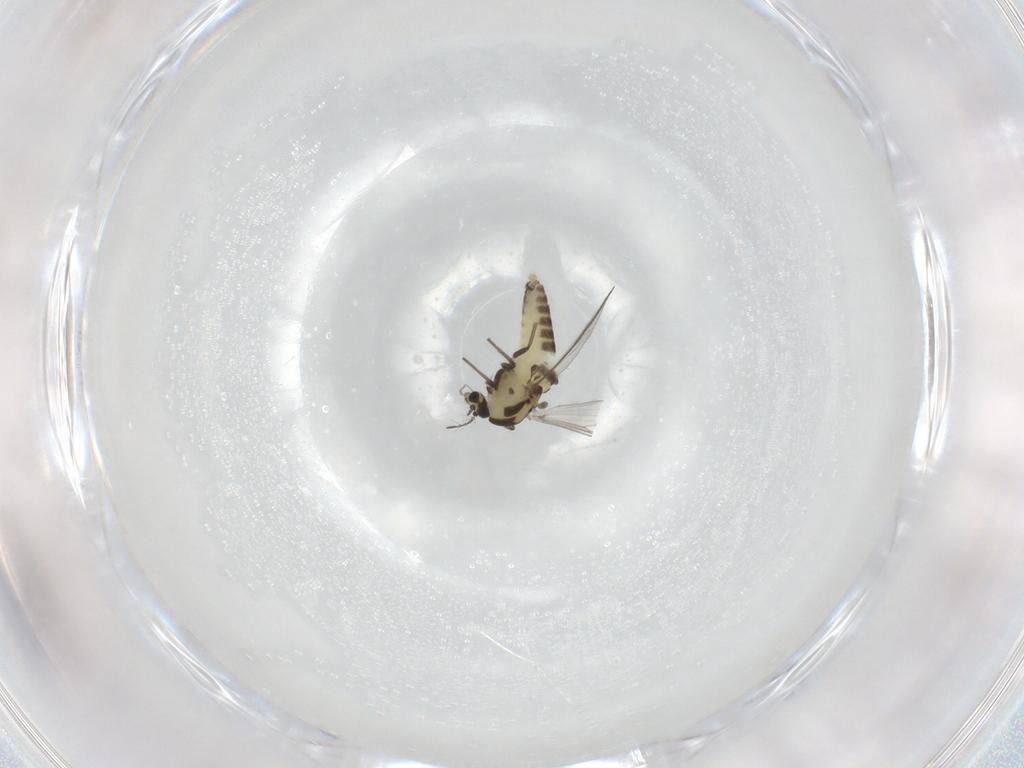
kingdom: Animalia
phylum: Arthropoda
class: Insecta
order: Diptera
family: Chironomidae
